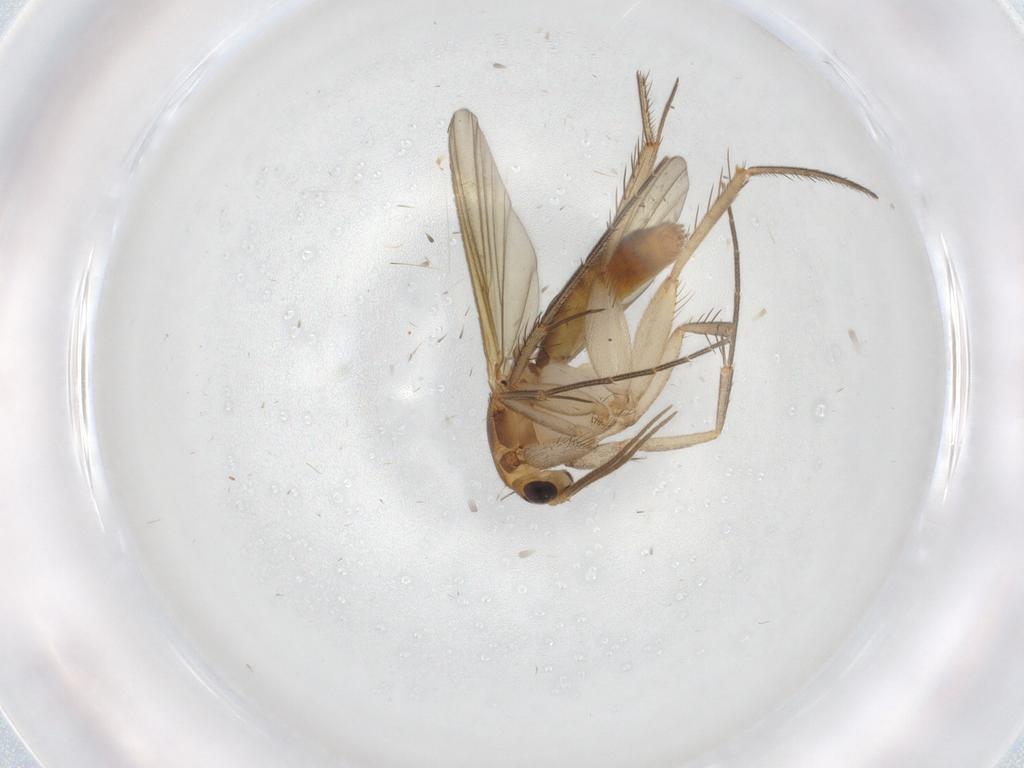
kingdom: Animalia
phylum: Arthropoda
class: Insecta
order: Diptera
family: Mycetophilidae
